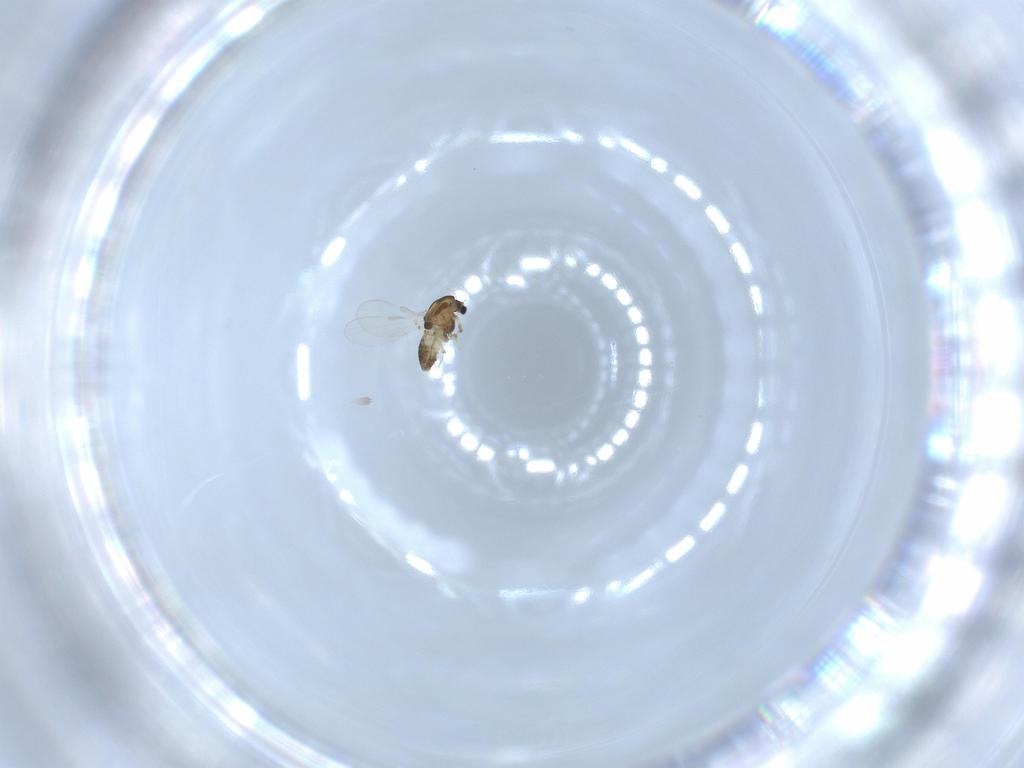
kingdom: Animalia
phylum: Arthropoda
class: Insecta
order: Diptera
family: Chironomidae
